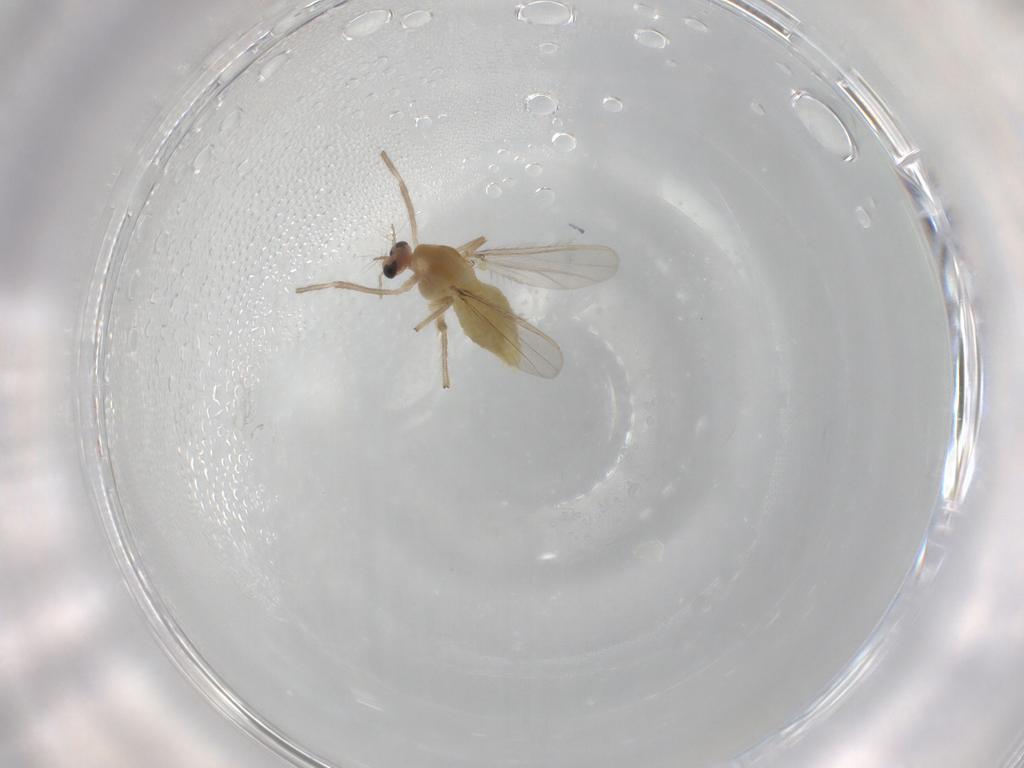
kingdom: Animalia
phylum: Arthropoda
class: Insecta
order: Diptera
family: Chironomidae
